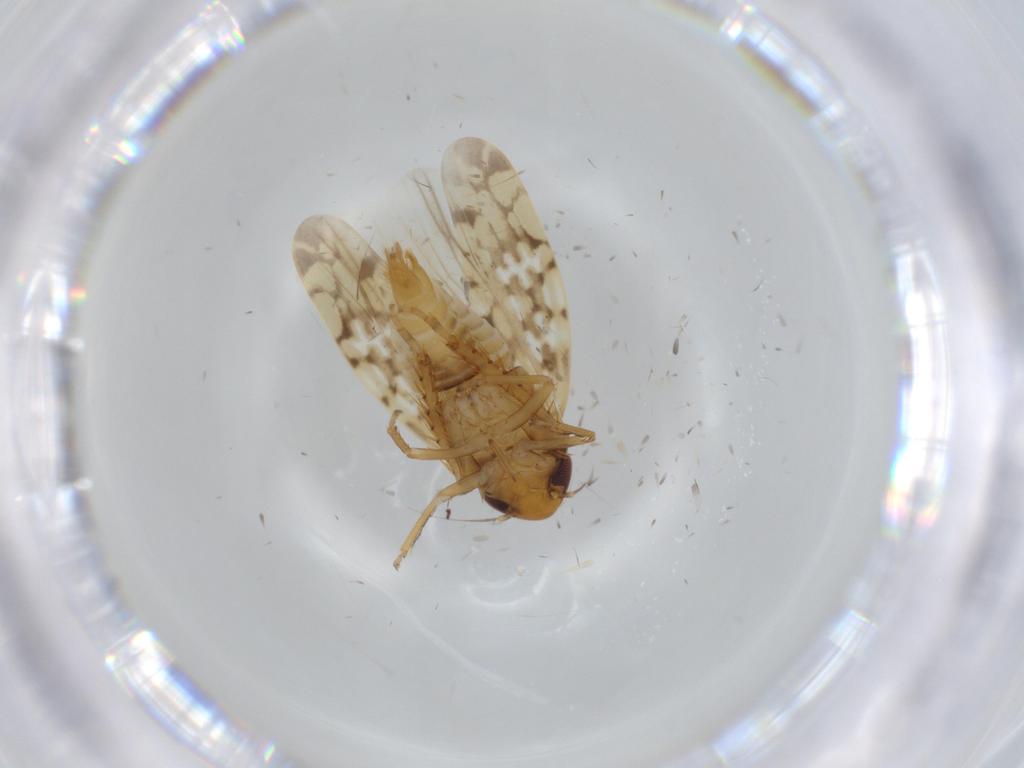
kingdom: Animalia
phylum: Arthropoda
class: Insecta
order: Hemiptera
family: Cicadellidae
